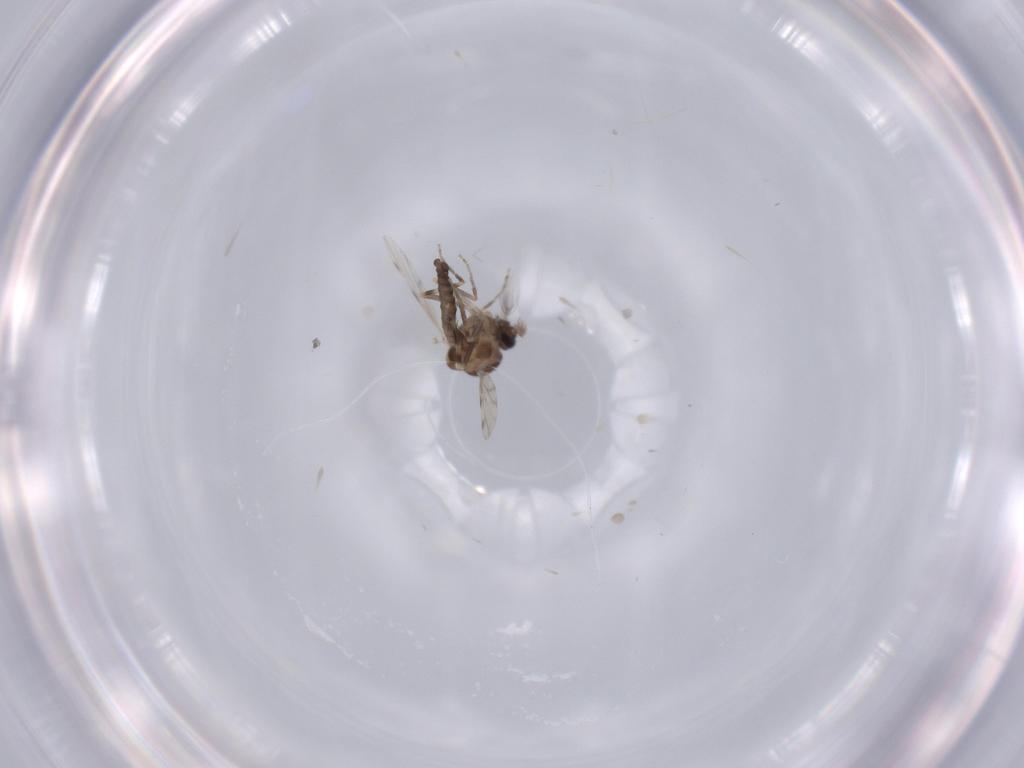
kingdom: Animalia
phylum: Arthropoda
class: Insecta
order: Diptera
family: Ceratopogonidae
